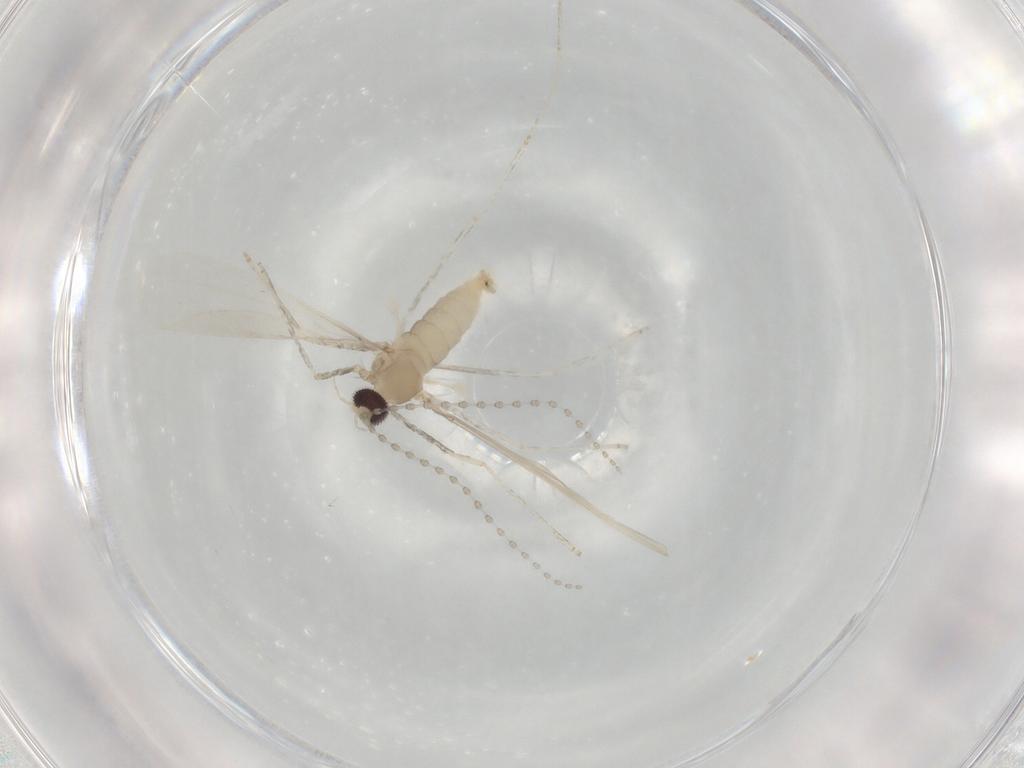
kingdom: Animalia
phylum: Arthropoda
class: Insecta
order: Diptera
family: Cecidomyiidae
